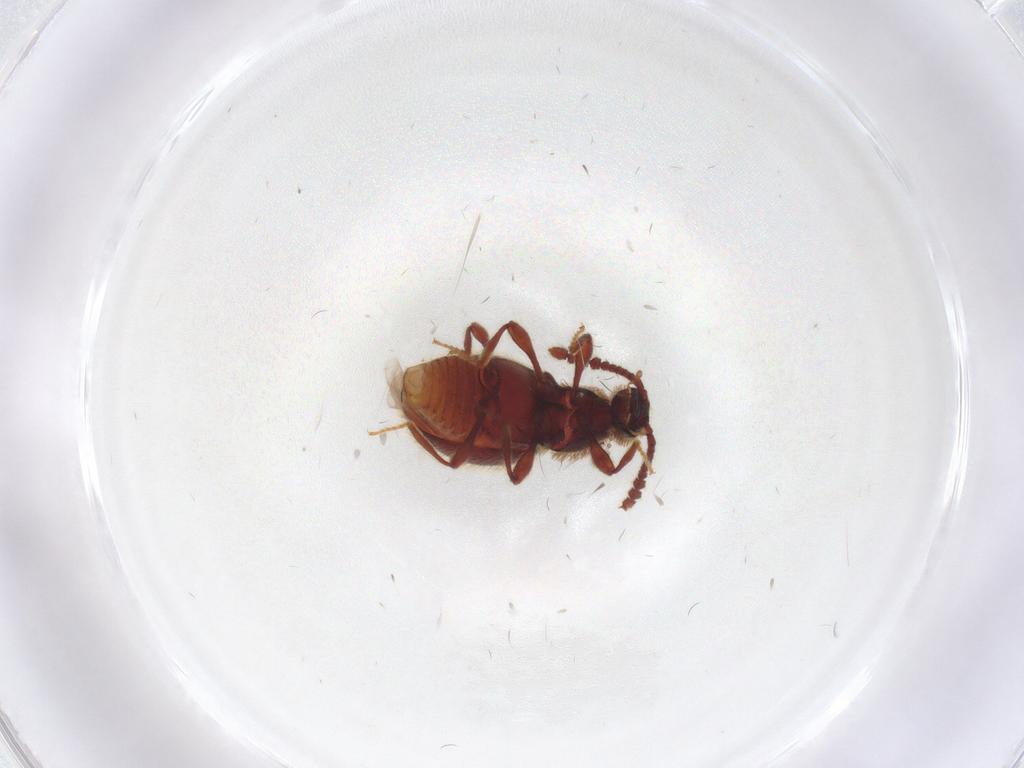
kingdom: Animalia
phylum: Arthropoda
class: Insecta
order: Coleoptera
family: Staphylinidae
